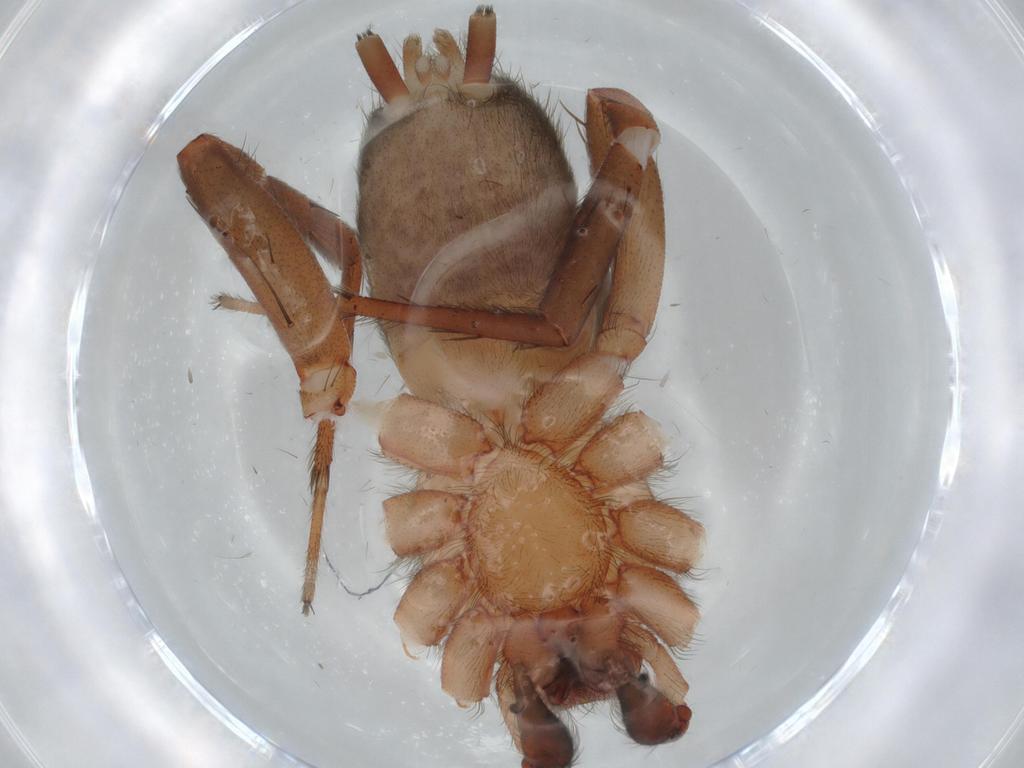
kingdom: Animalia
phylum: Arthropoda
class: Arachnida
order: Araneae
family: Gnaphosidae
